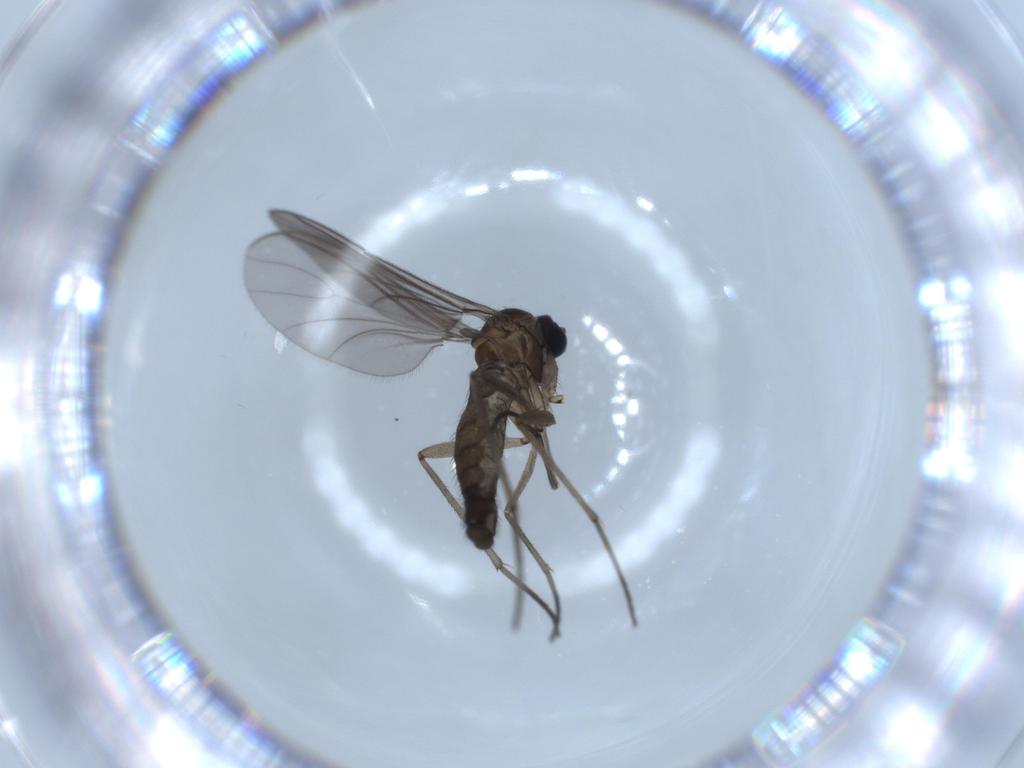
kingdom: Animalia
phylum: Arthropoda
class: Insecta
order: Diptera
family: Sciaridae
